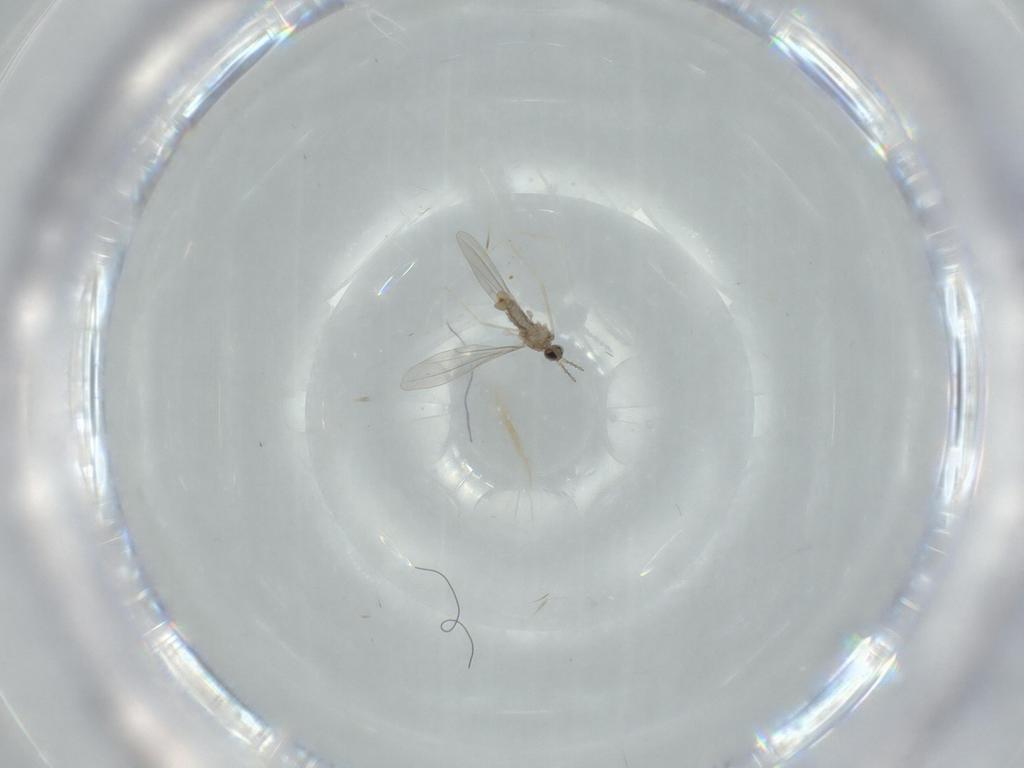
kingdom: Animalia
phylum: Arthropoda
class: Insecta
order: Diptera
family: Cecidomyiidae
